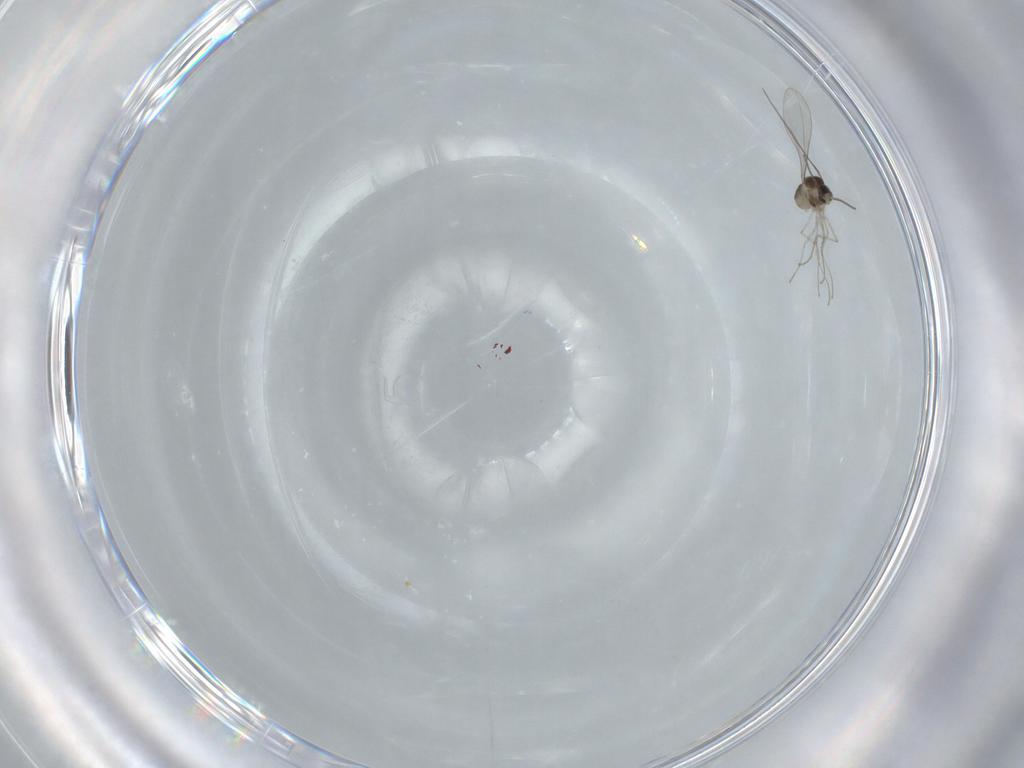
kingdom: Animalia
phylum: Arthropoda
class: Insecta
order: Diptera
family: Cecidomyiidae
